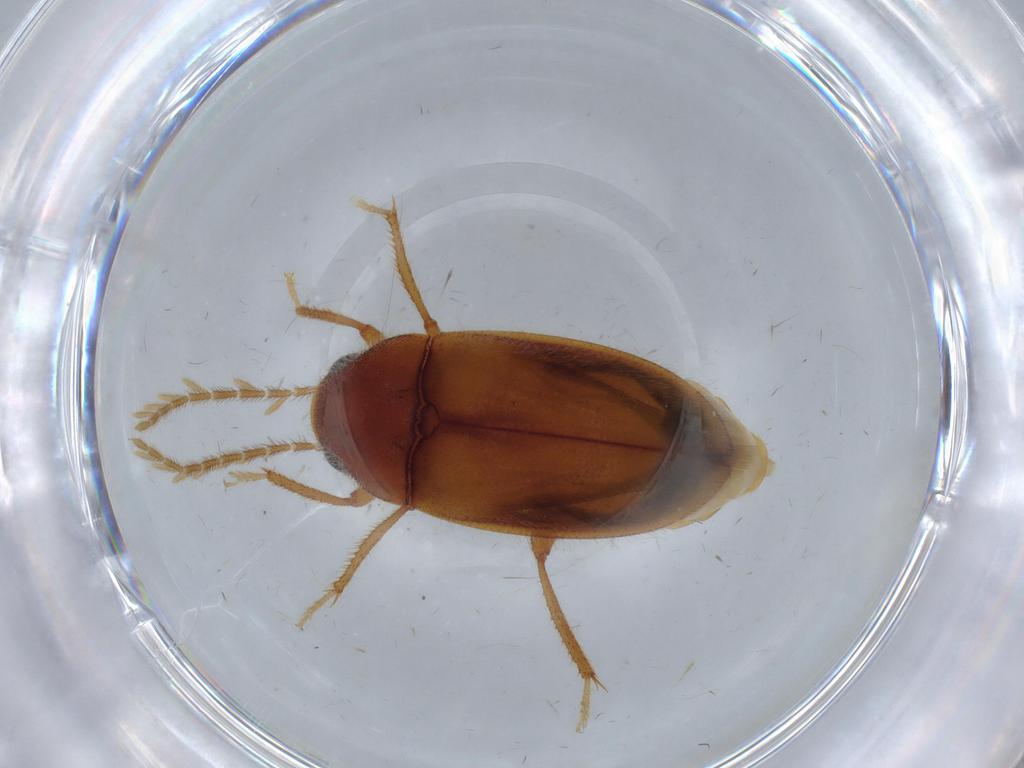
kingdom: Animalia
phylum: Arthropoda
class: Insecta
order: Coleoptera
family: Ptilodactylidae
